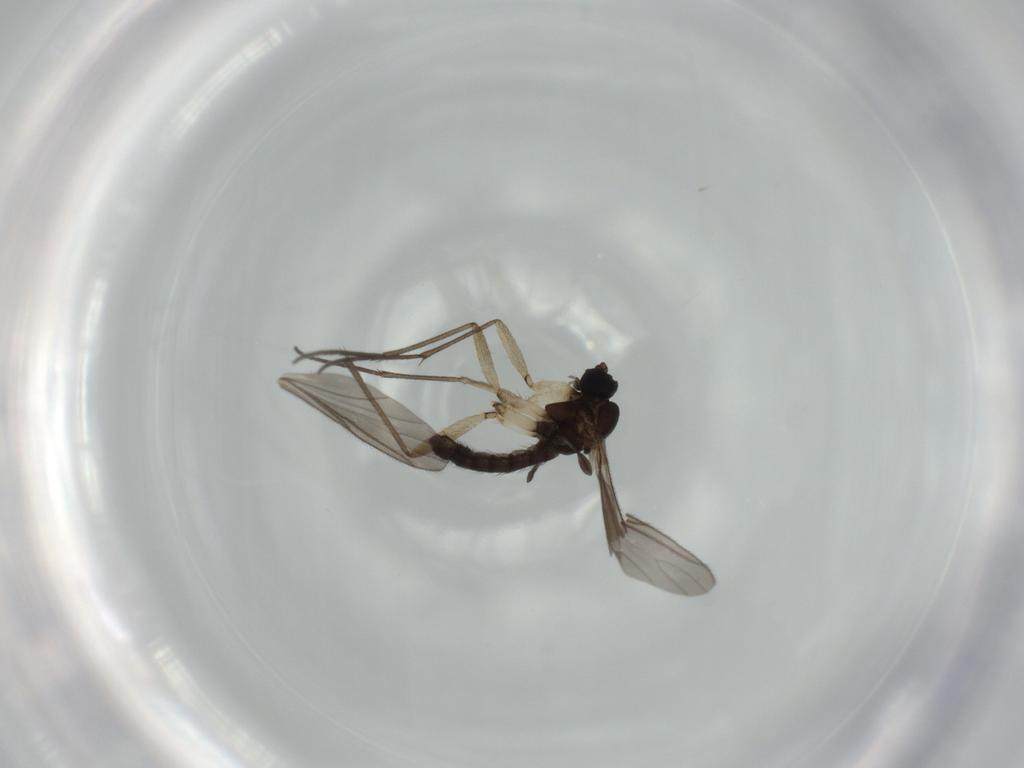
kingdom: Animalia
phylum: Arthropoda
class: Insecta
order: Diptera
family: Sciaridae
